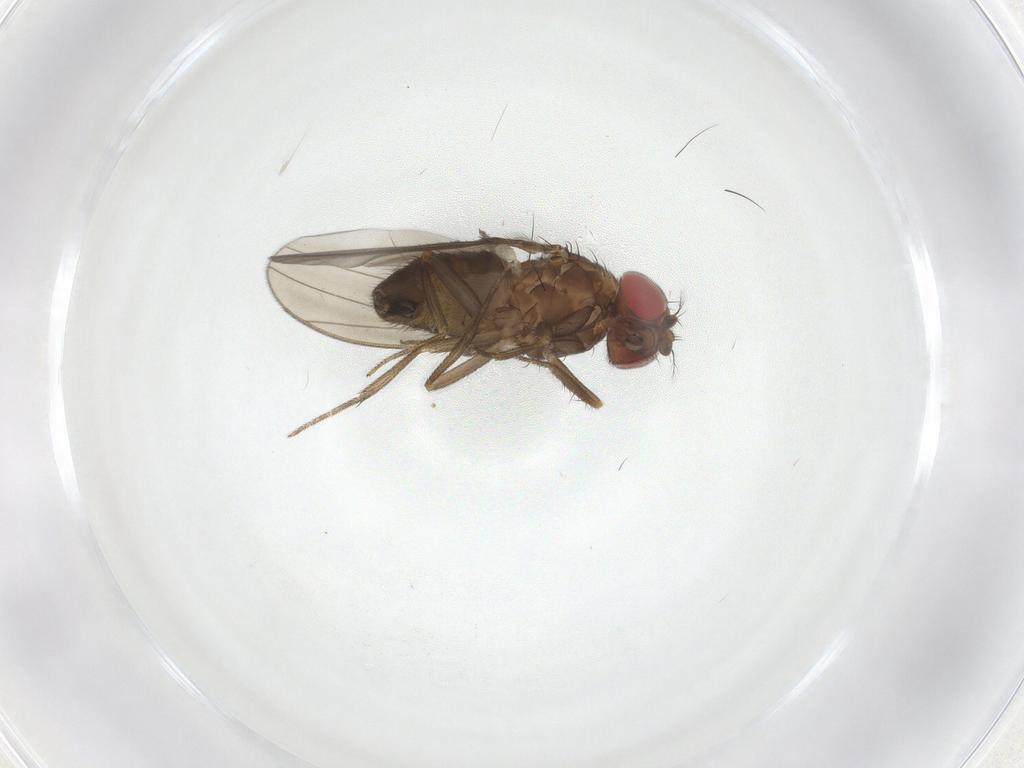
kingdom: Animalia
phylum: Arthropoda
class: Insecta
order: Diptera
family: Drosophilidae
